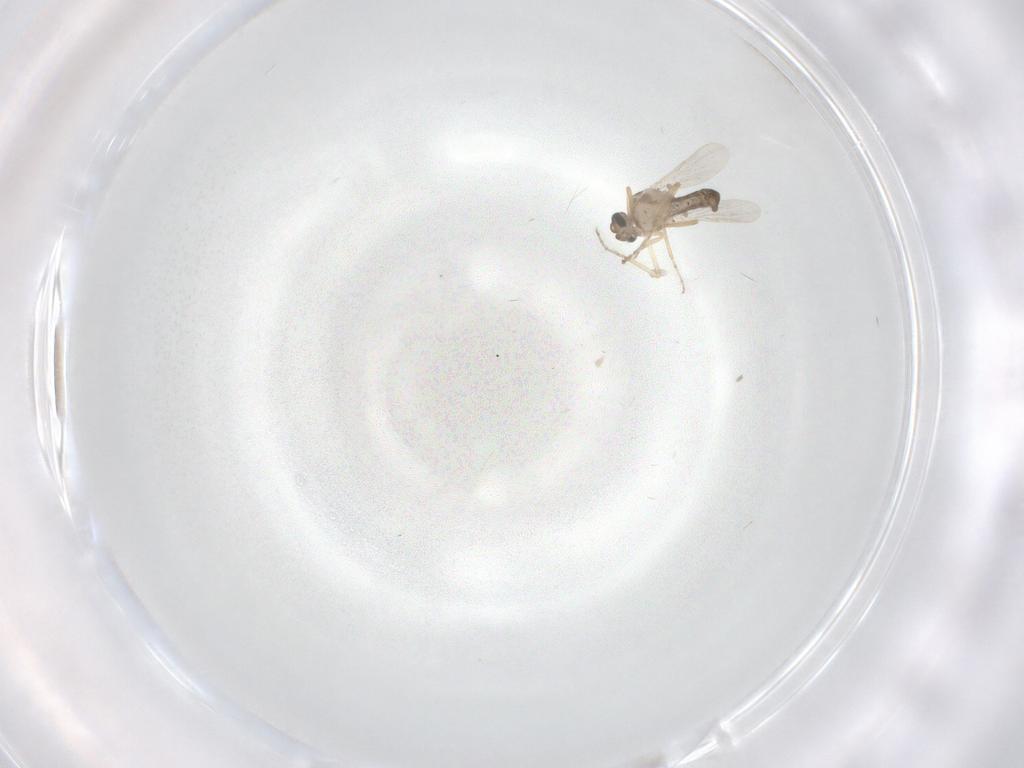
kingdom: Animalia
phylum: Arthropoda
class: Insecta
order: Diptera
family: Ceratopogonidae
